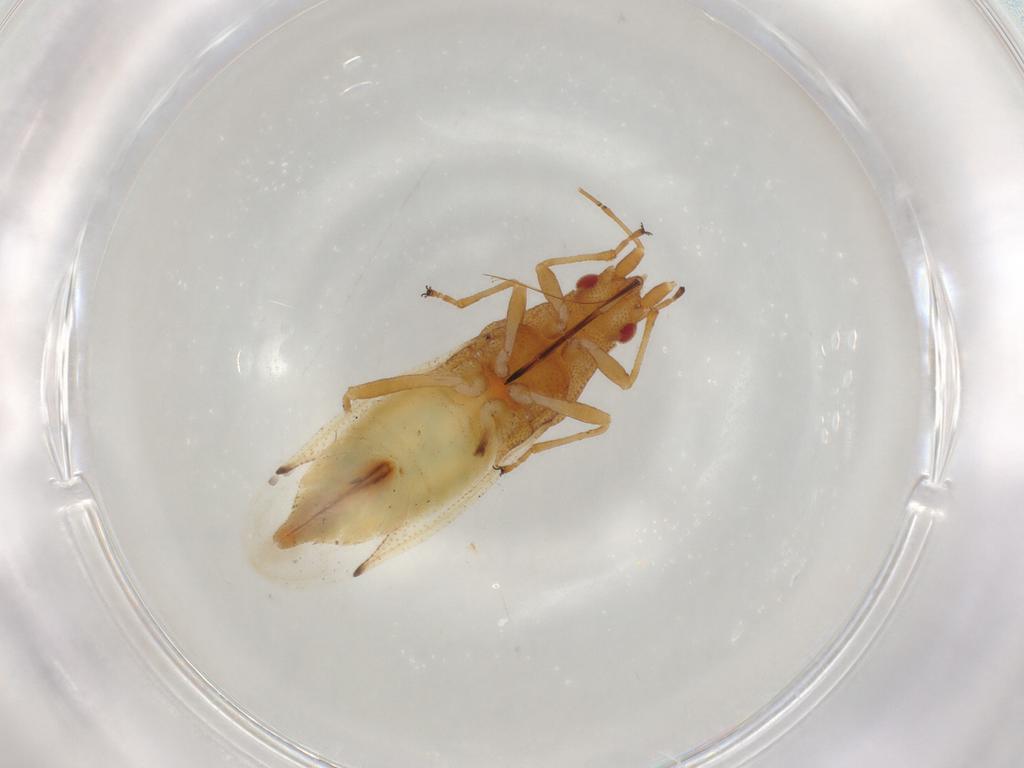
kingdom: Animalia
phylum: Arthropoda
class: Insecta
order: Hemiptera
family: Cymidae
